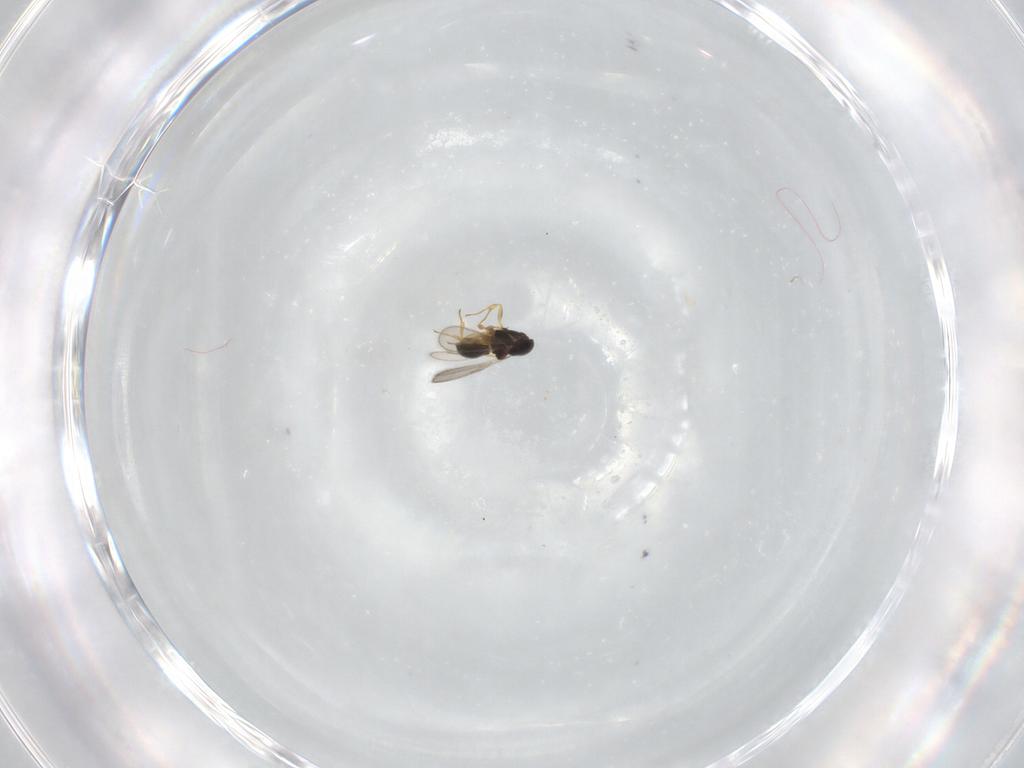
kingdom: Animalia
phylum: Arthropoda
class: Insecta
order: Hymenoptera
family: Scelionidae
